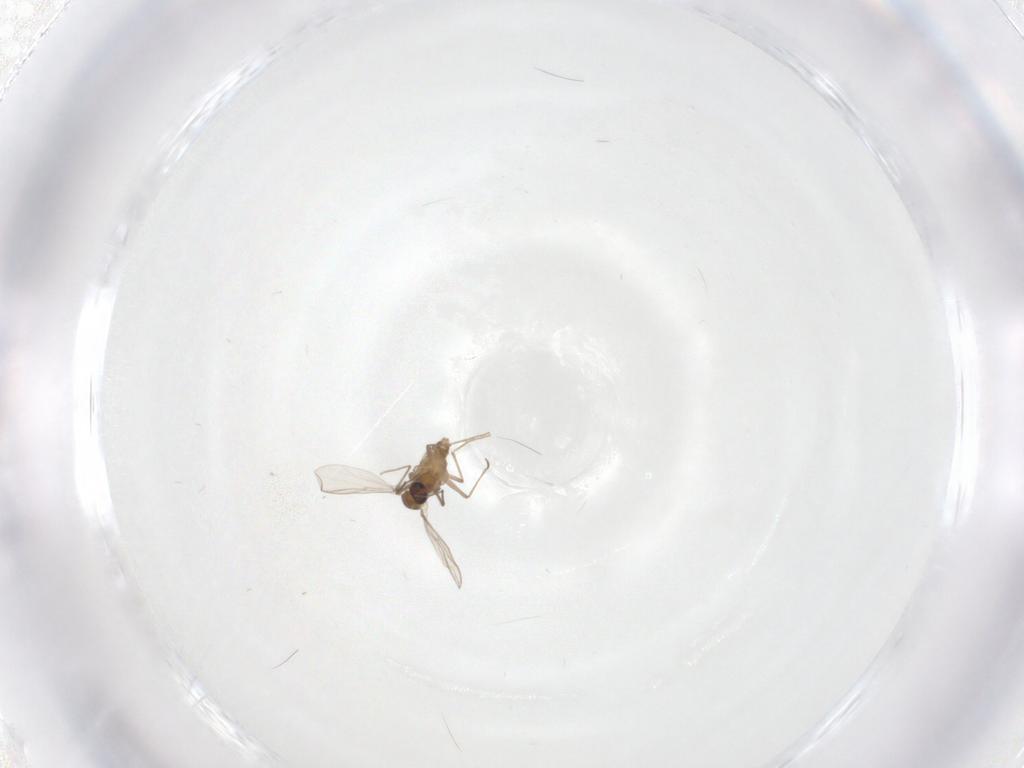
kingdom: Animalia
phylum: Arthropoda
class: Insecta
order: Diptera
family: Chironomidae
